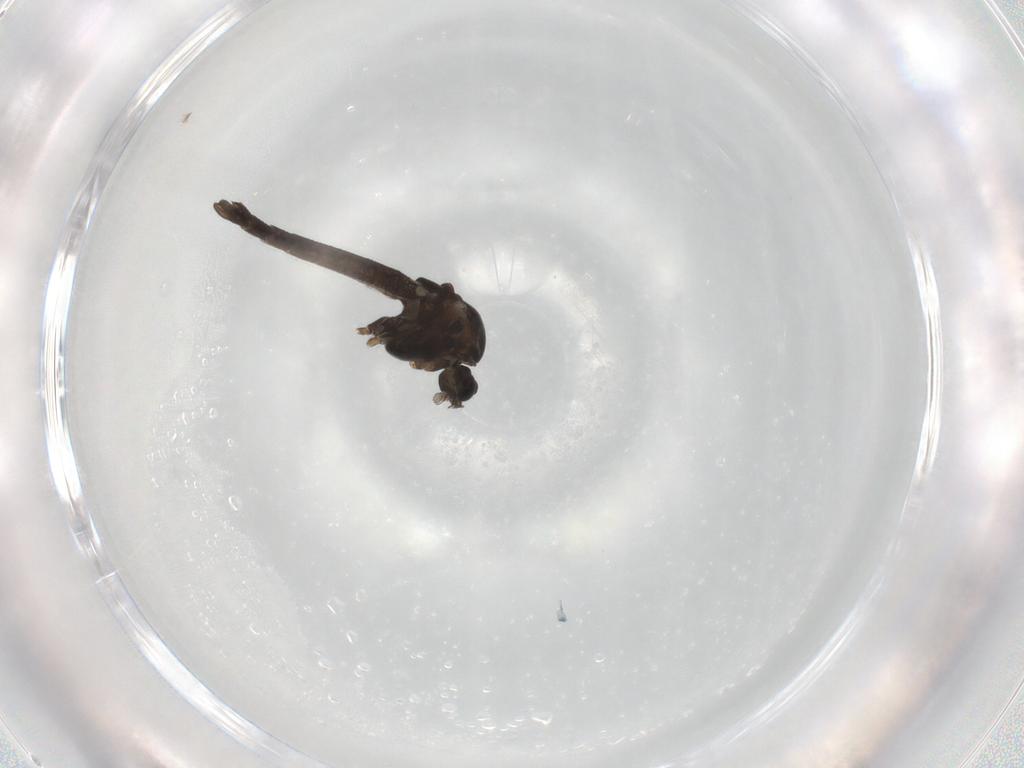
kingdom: Animalia
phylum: Arthropoda
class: Insecta
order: Diptera
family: Chironomidae
